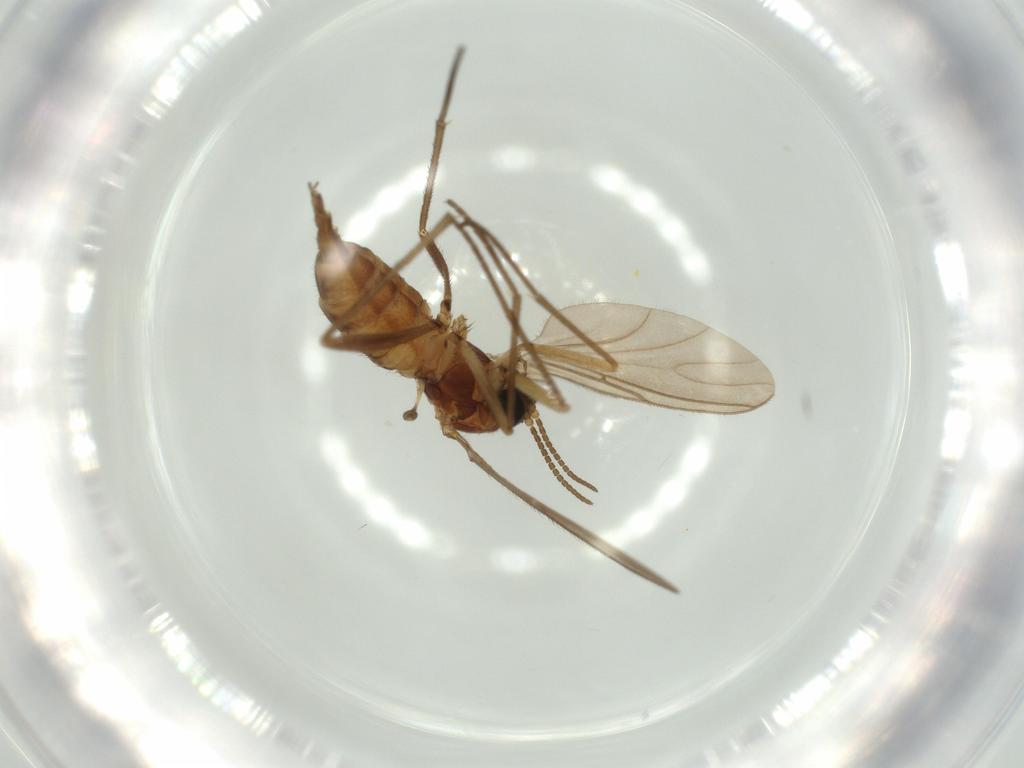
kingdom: Animalia
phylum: Arthropoda
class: Insecta
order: Diptera
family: Sciaridae
